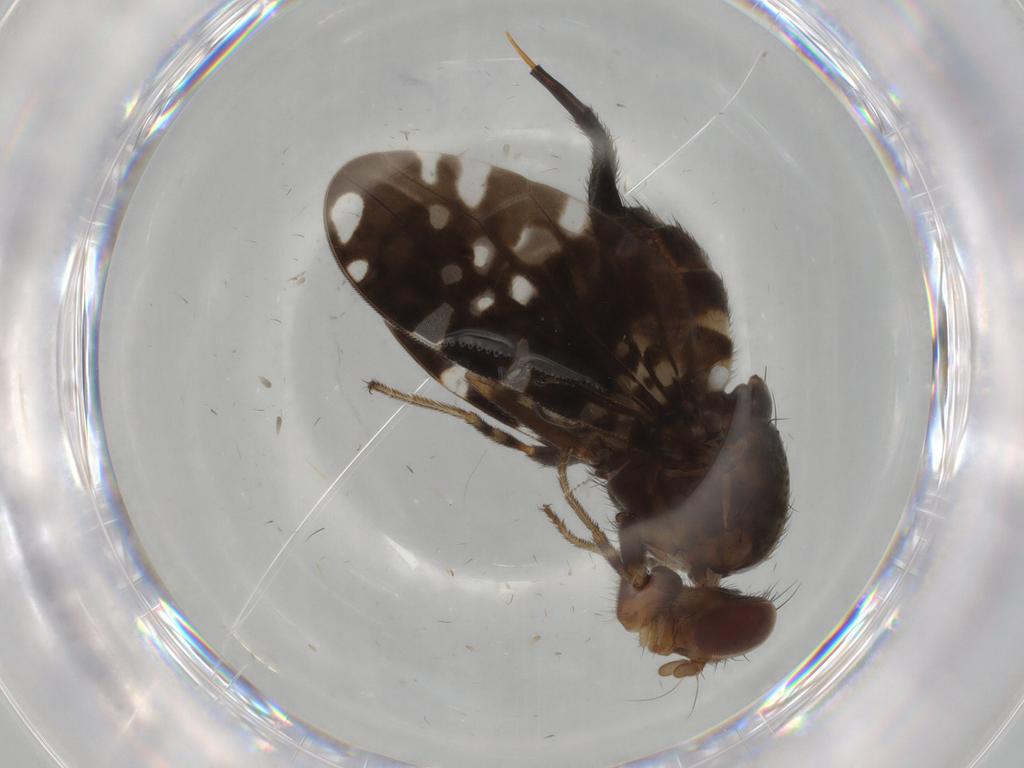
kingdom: Animalia
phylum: Arthropoda
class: Insecta
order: Diptera
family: Ulidiidae
